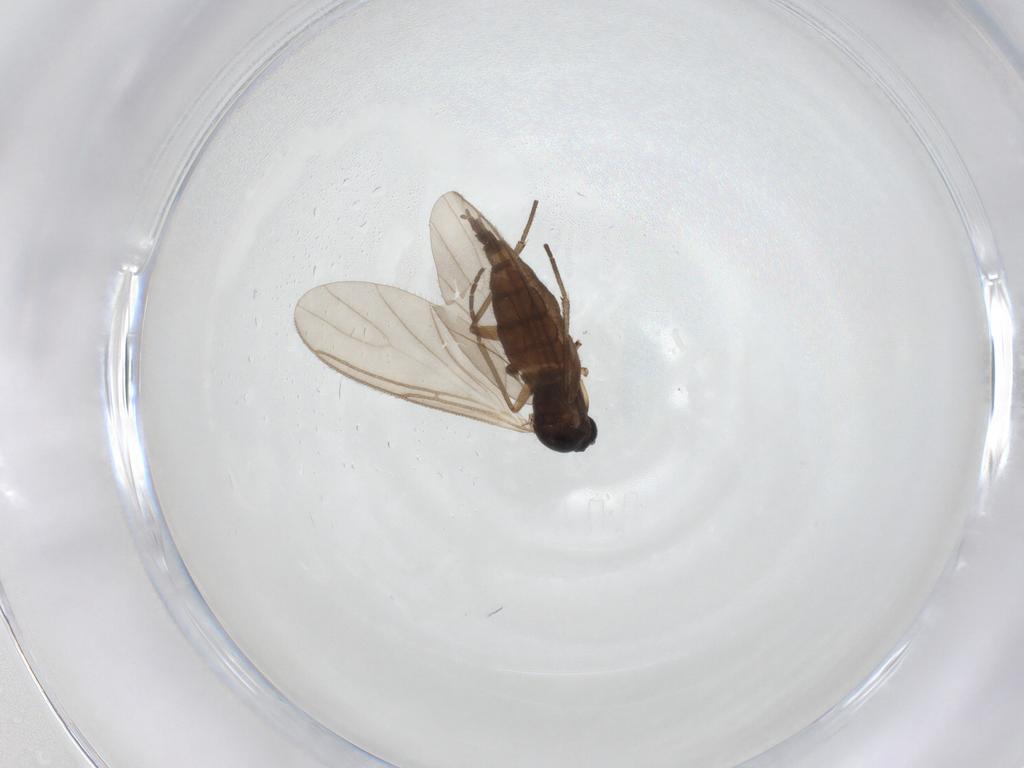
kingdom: Animalia
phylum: Arthropoda
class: Insecta
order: Diptera
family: Sciaridae
